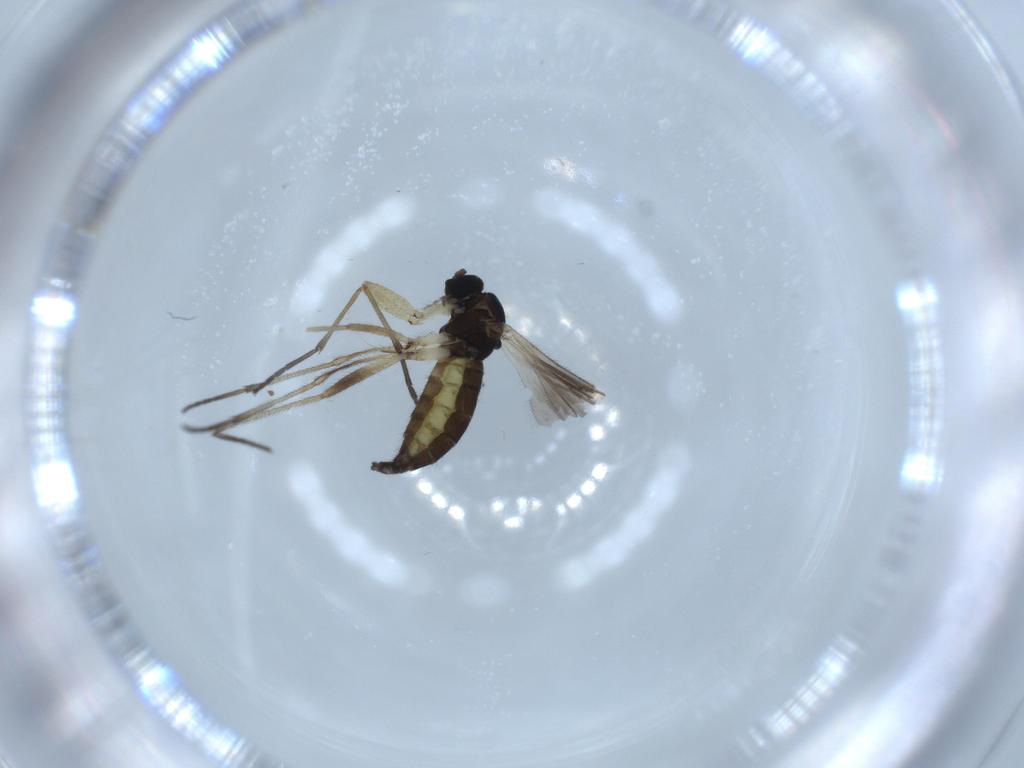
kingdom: Animalia
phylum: Arthropoda
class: Insecta
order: Diptera
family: Sciaridae
